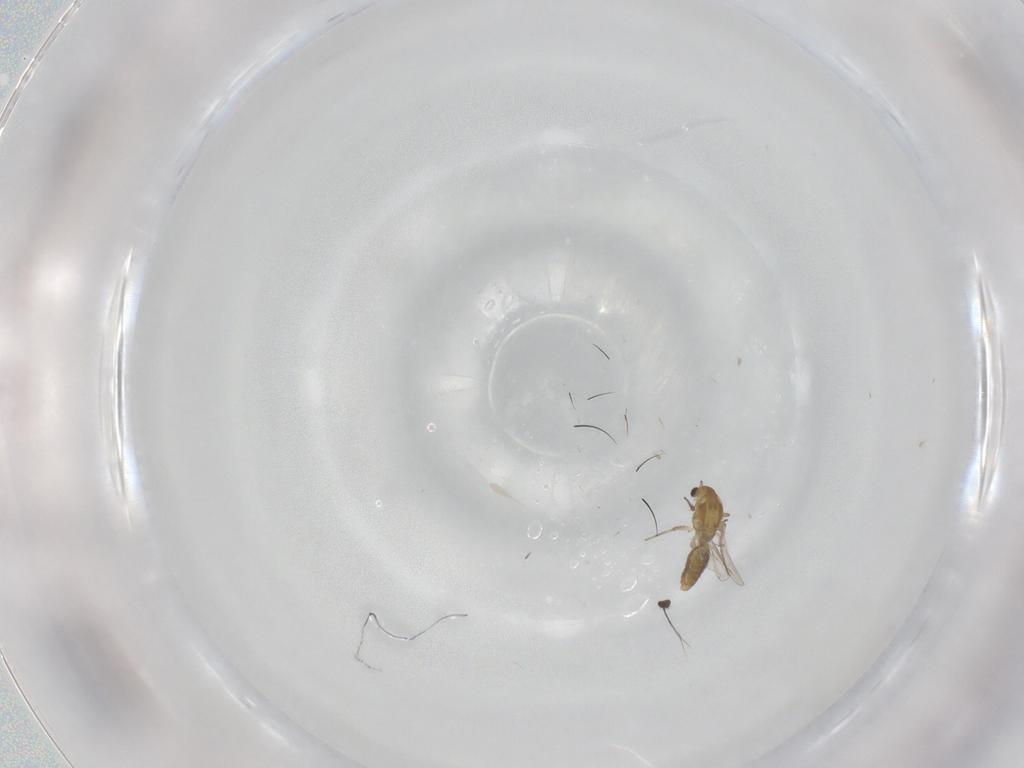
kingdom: Animalia
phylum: Arthropoda
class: Insecta
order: Diptera
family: Chironomidae
